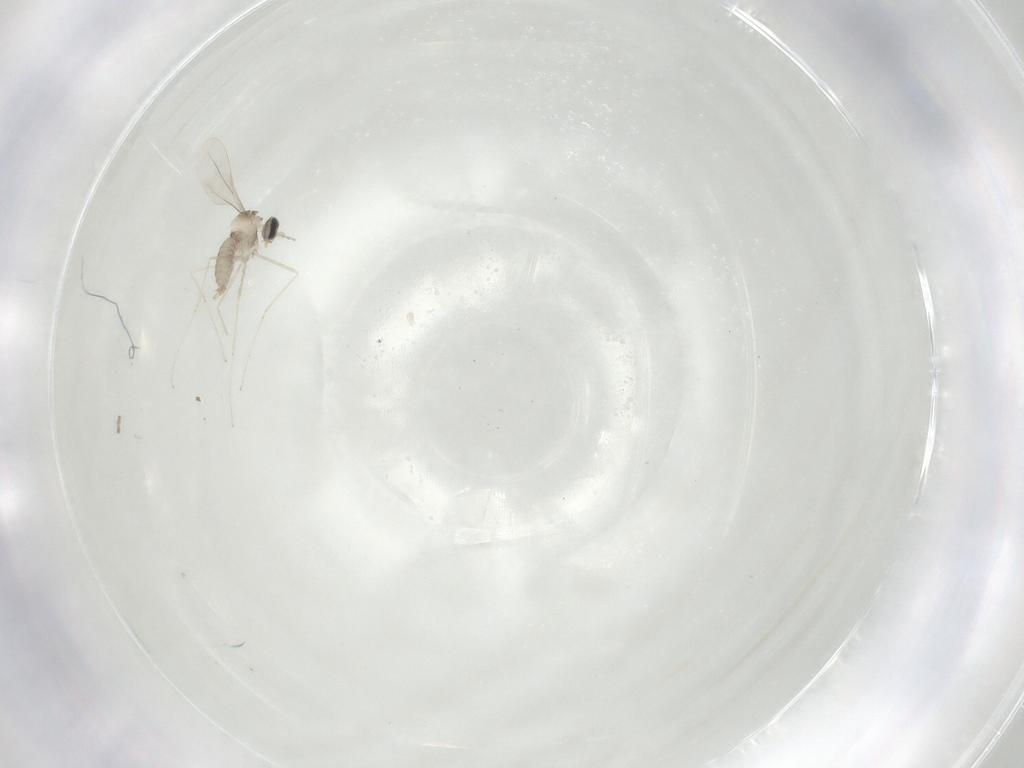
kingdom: Animalia
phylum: Arthropoda
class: Insecta
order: Diptera
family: Cecidomyiidae
